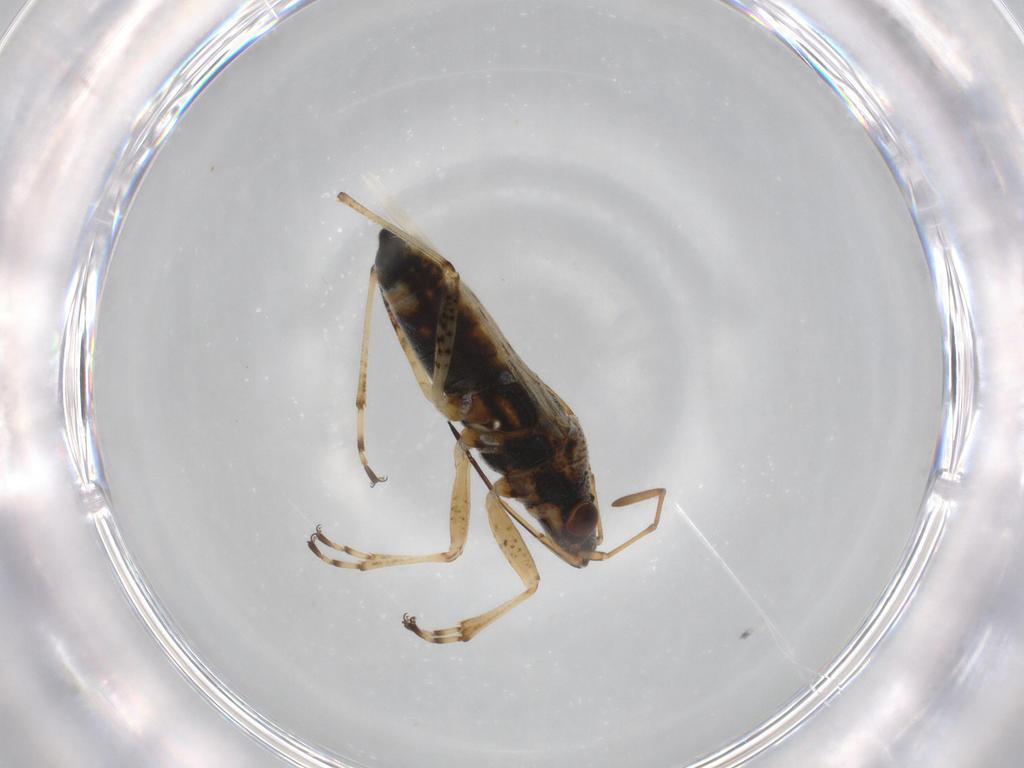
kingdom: Animalia
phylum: Arthropoda
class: Insecta
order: Hemiptera
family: Lygaeidae
